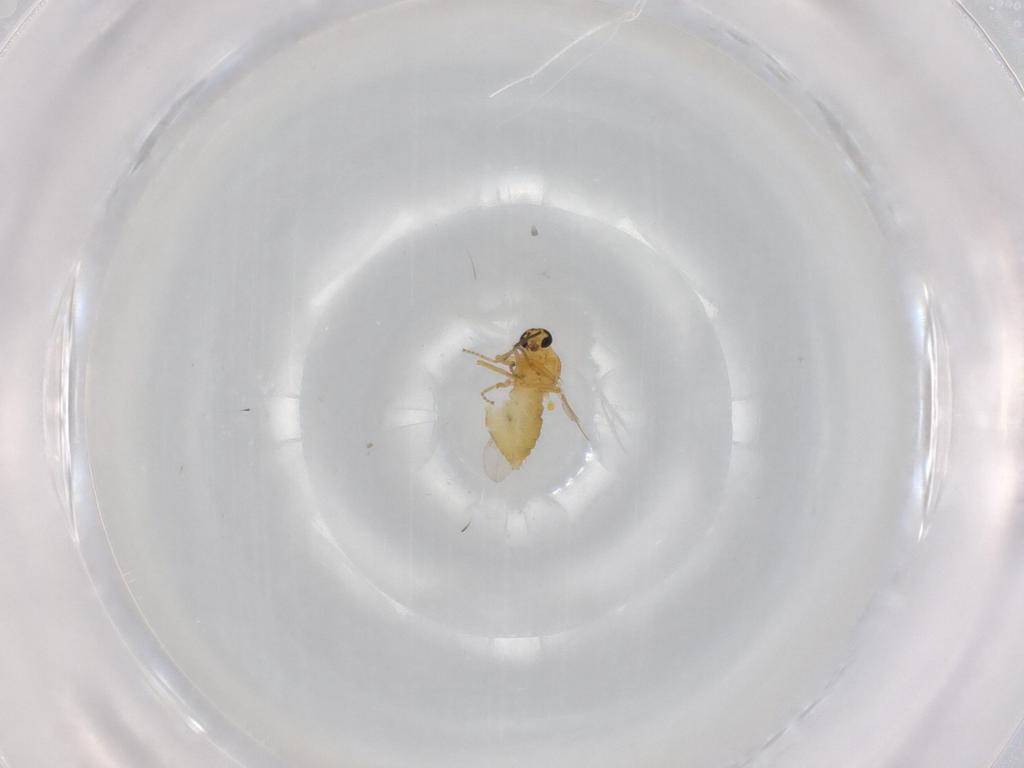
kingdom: Animalia
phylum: Arthropoda
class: Insecta
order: Diptera
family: Ceratopogonidae
